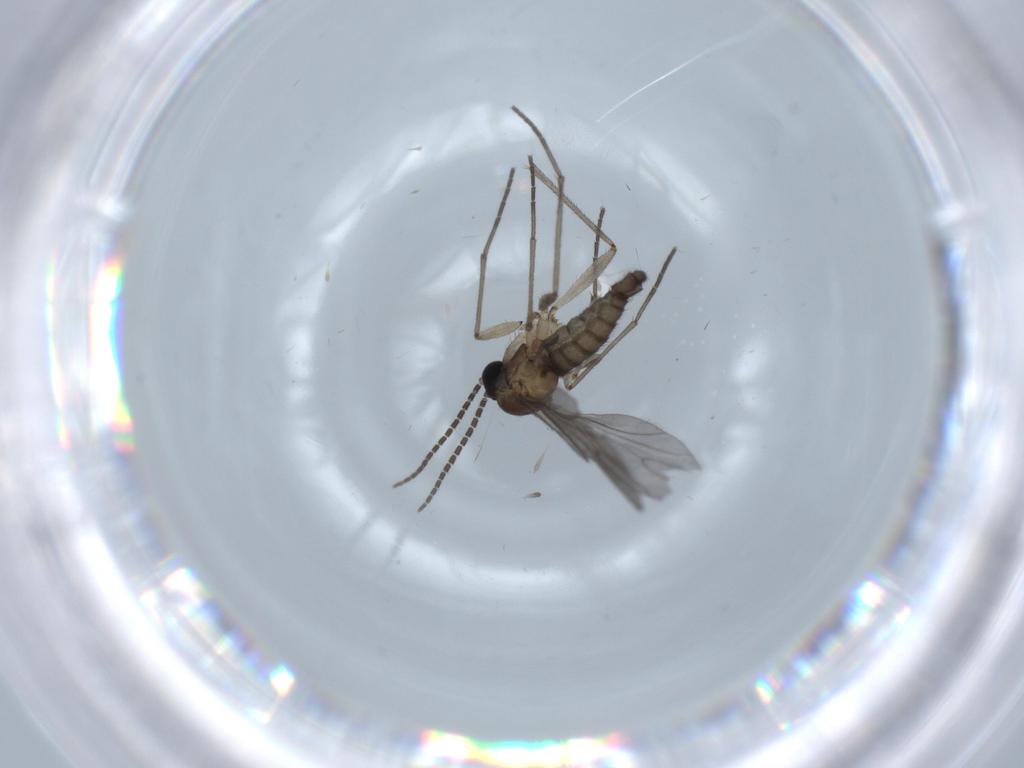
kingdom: Animalia
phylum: Arthropoda
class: Insecta
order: Diptera
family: Sciaridae
